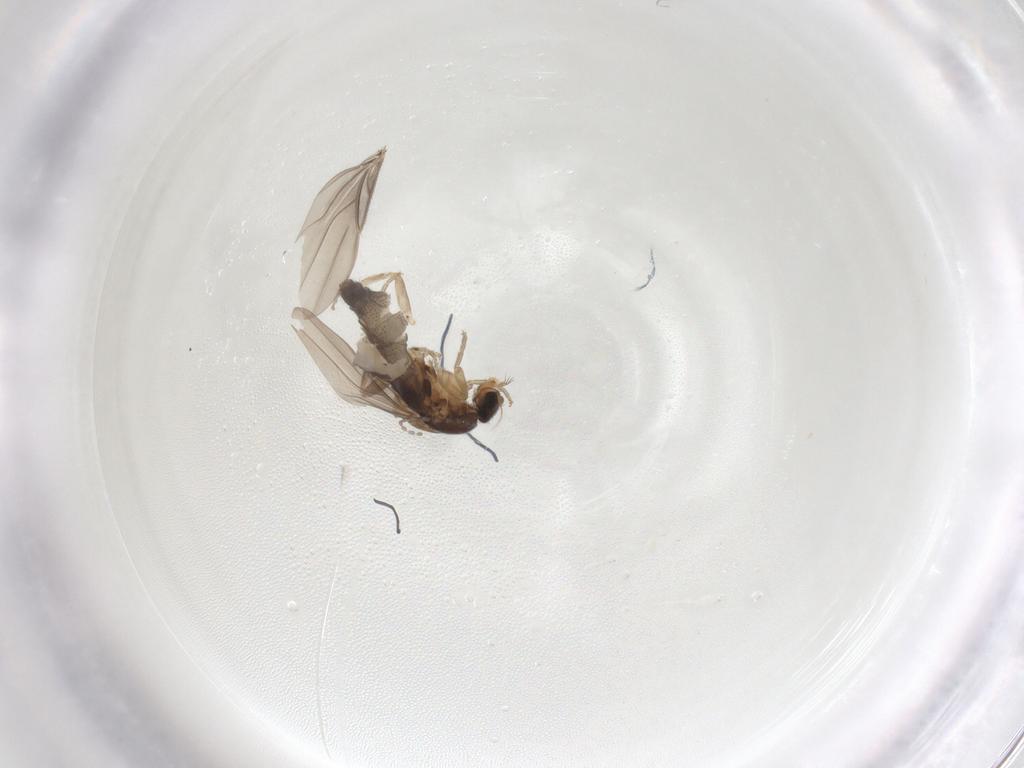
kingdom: Animalia
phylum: Arthropoda
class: Insecta
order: Diptera
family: Phoridae
